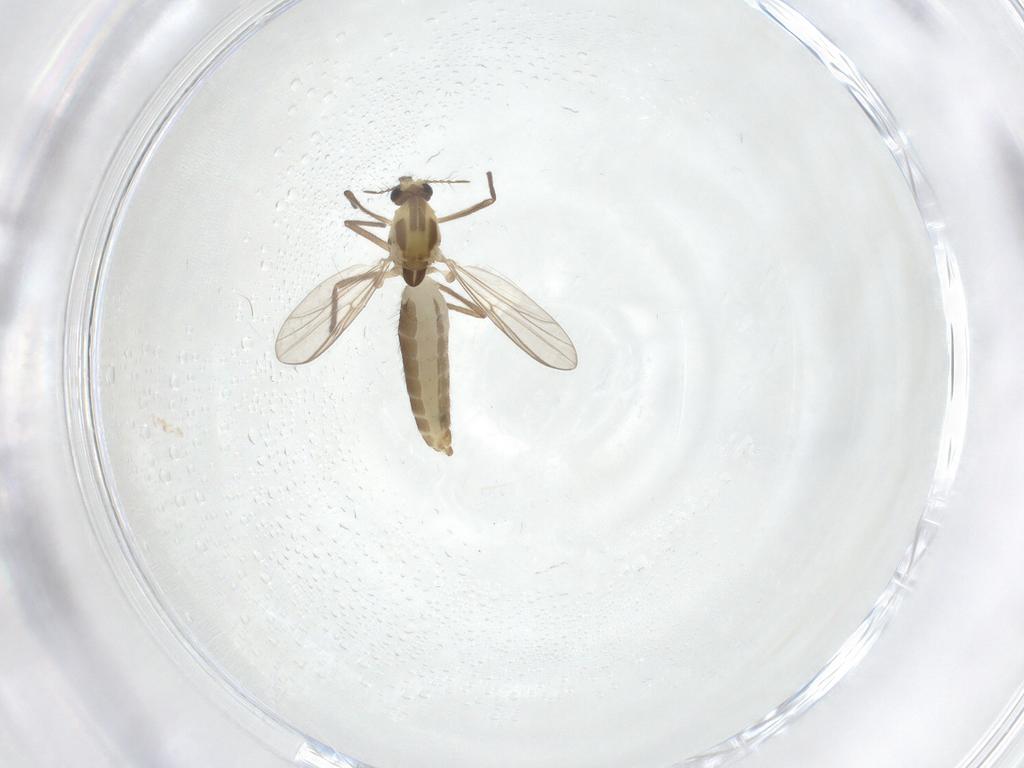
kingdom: Animalia
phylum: Arthropoda
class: Insecta
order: Diptera
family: Chironomidae
